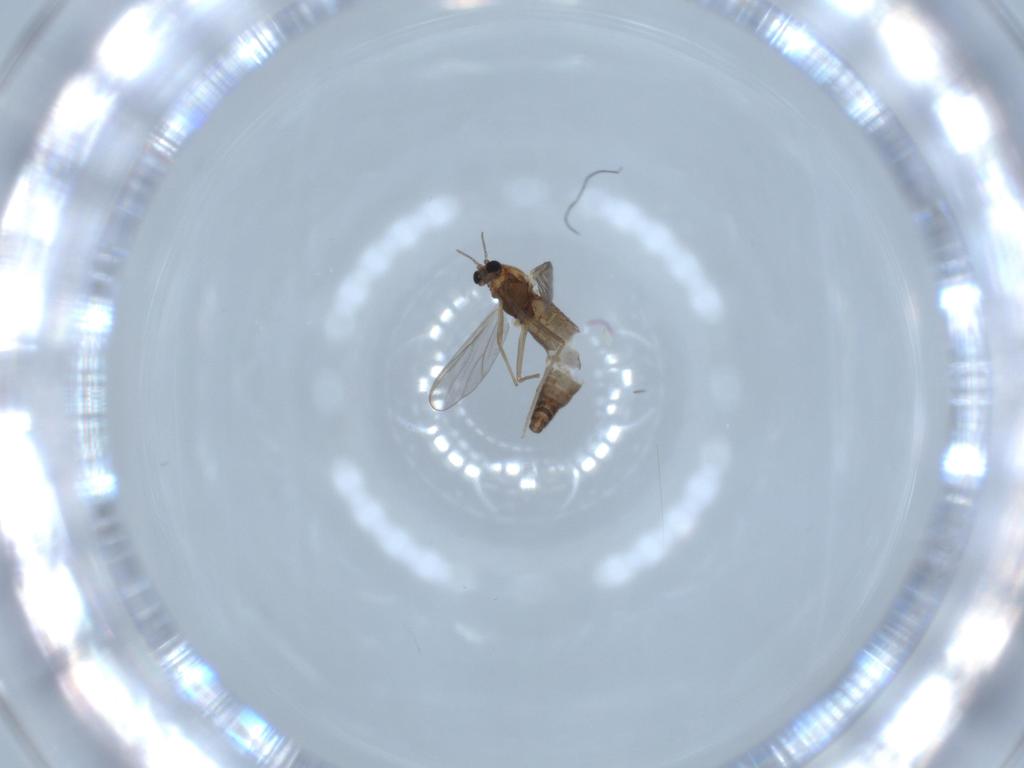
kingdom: Animalia
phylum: Arthropoda
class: Insecta
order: Diptera
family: Chironomidae
